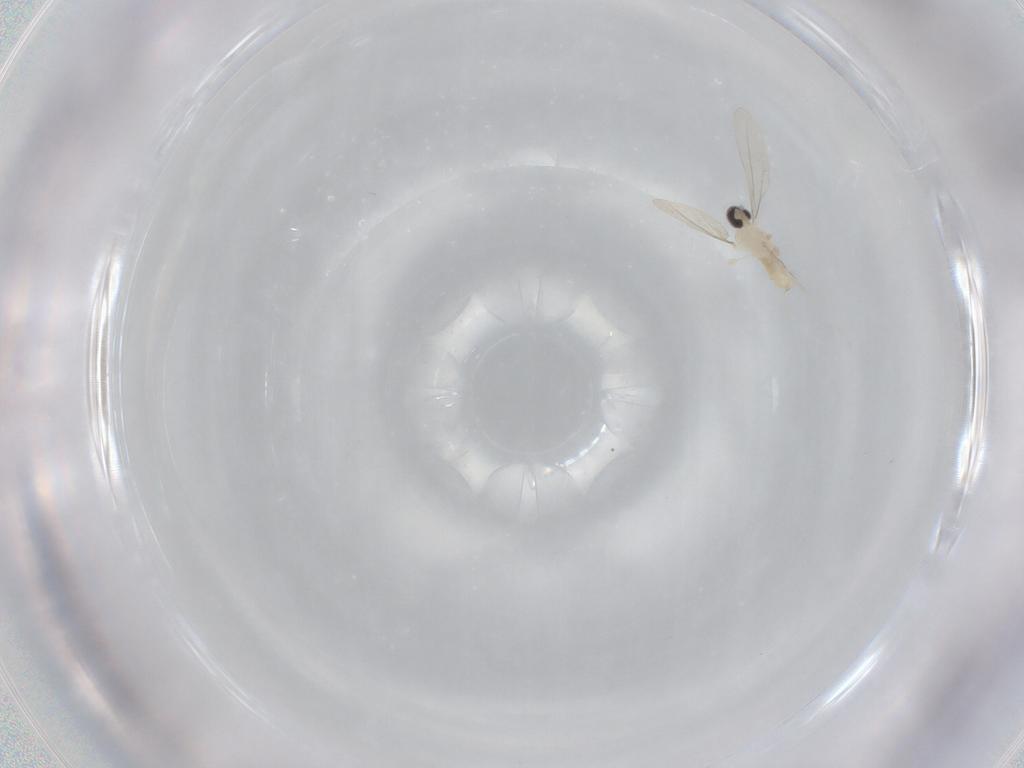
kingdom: Animalia
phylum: Arthropoda
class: Insecta
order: Diptera
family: Cecidomyiidae
